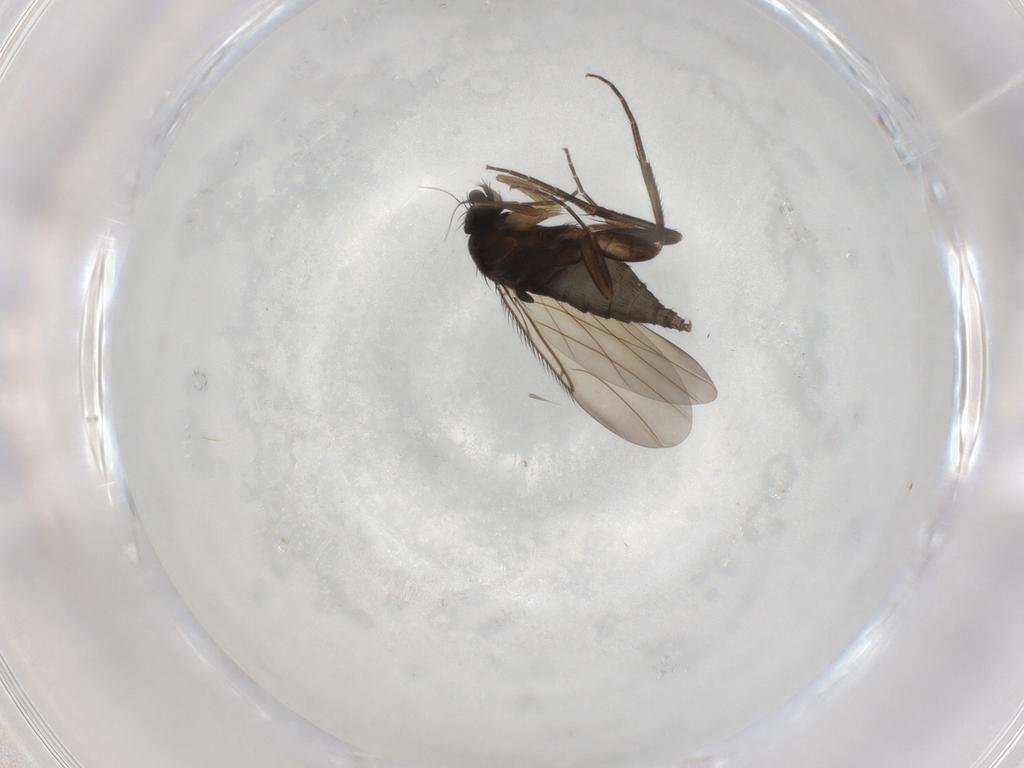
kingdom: Animalia
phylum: Arthropoda
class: Insecta
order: Diptera
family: Phoridae
